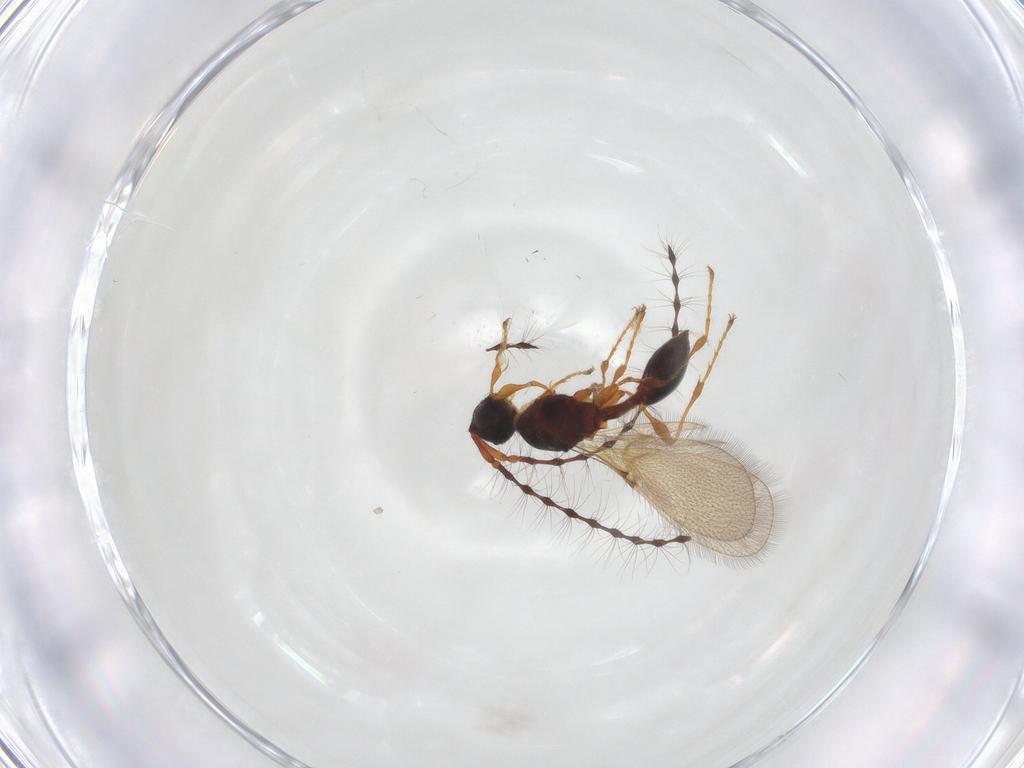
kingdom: Animalia
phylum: Arthropoda
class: Insecta
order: Hymenoptera
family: Diapriidae
